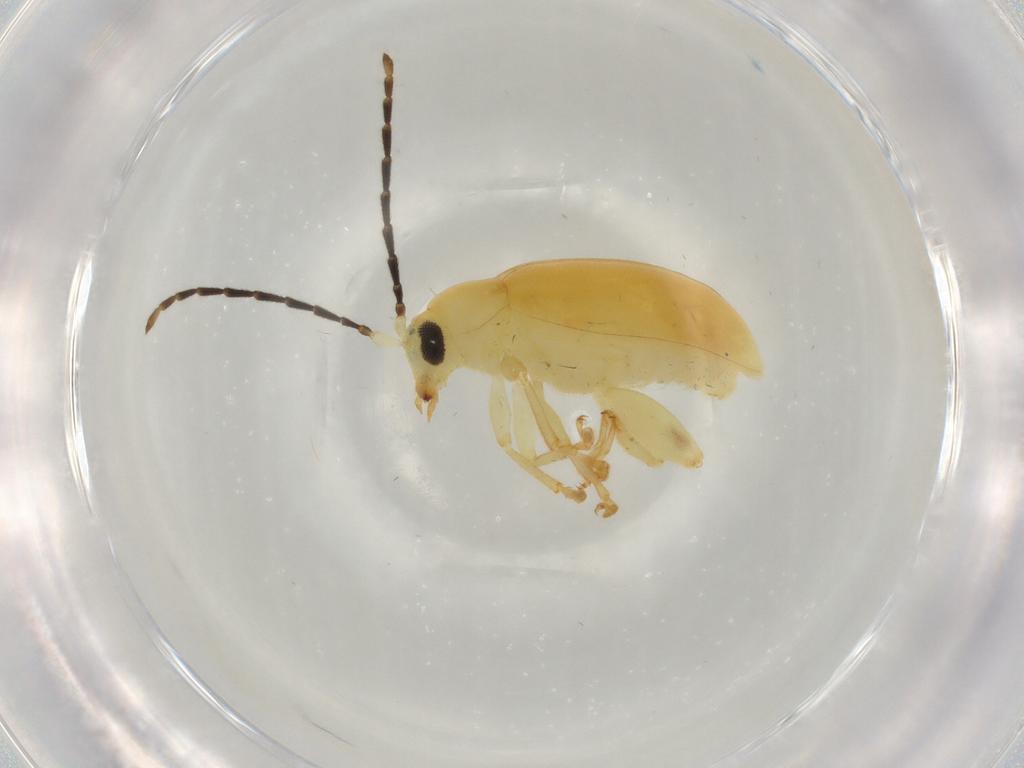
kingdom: Animalia
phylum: Arthropoda
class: Insecta
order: Coleoptera
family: Chrysomelidae
